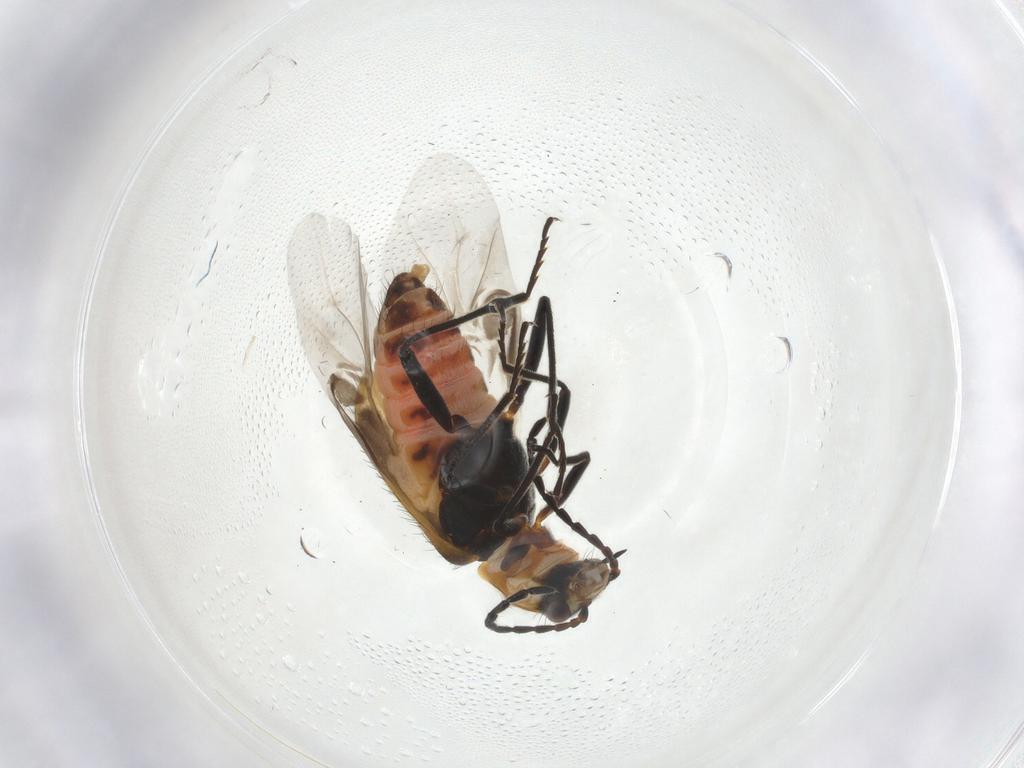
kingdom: Animalia
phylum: Arthropoda
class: Insecta
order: Coleoptera
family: Melyridae
